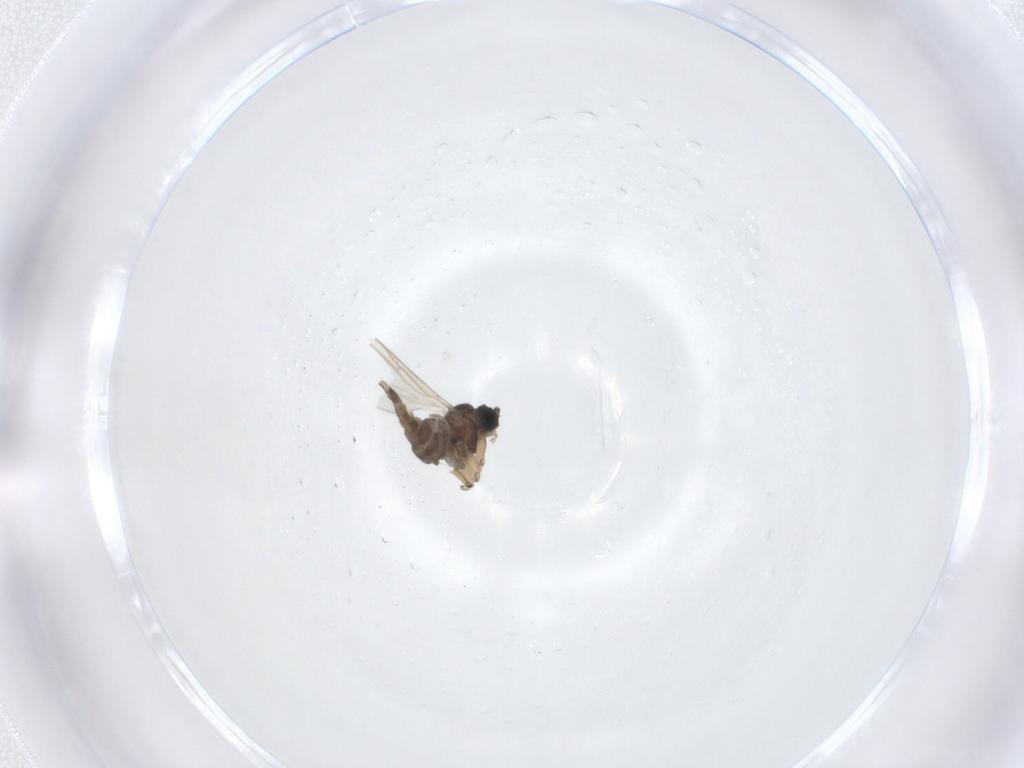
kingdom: Animalia
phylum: Arthropoda
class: Insecta
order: Diptera
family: Sciaridae
